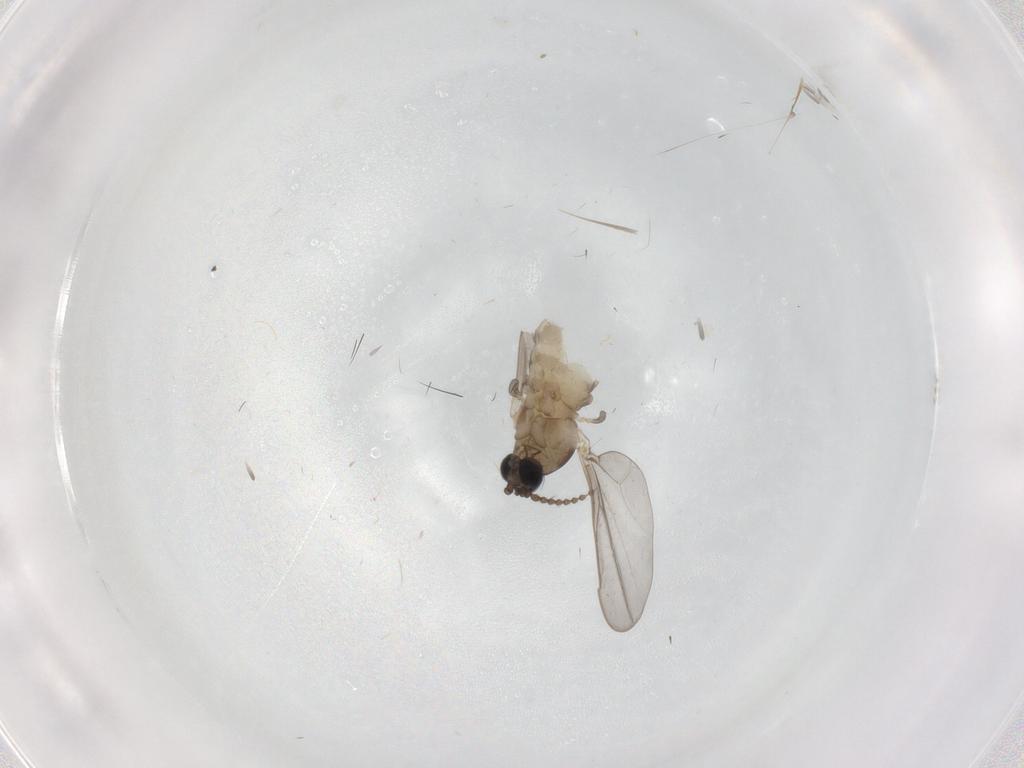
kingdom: Animalia
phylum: Arthropoda
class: Insecta
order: Diptera
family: Cecidomyiidae
